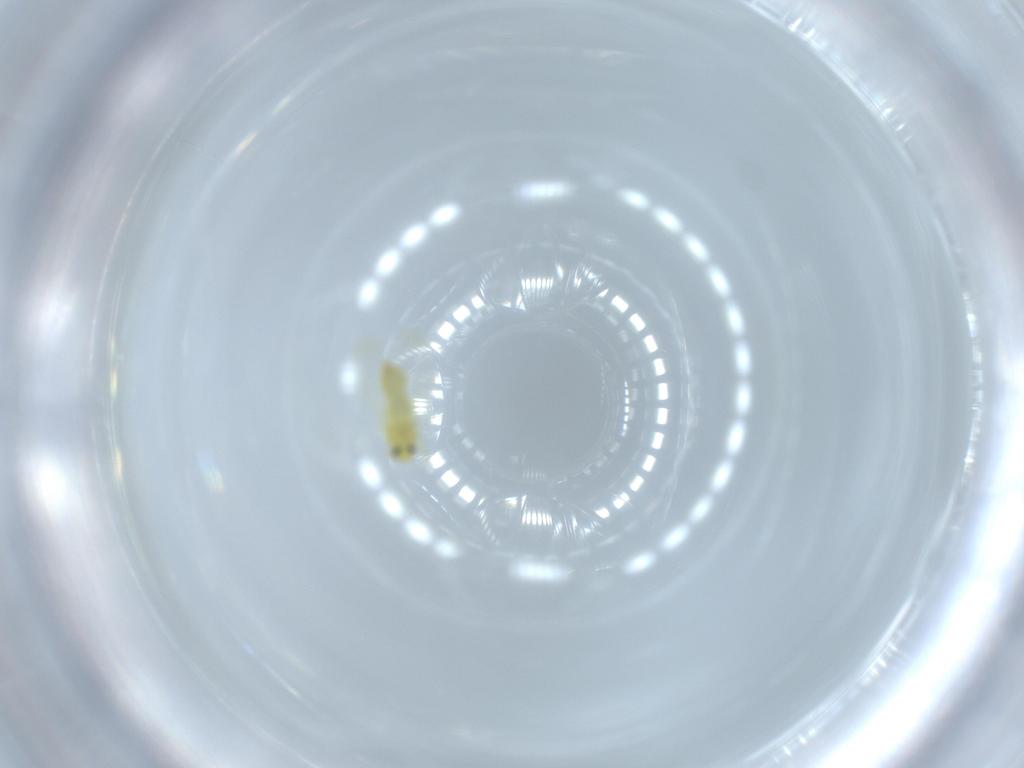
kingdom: Animalia
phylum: Arthropoda
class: Insecta
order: Hemiptera
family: Aleyrodidae
